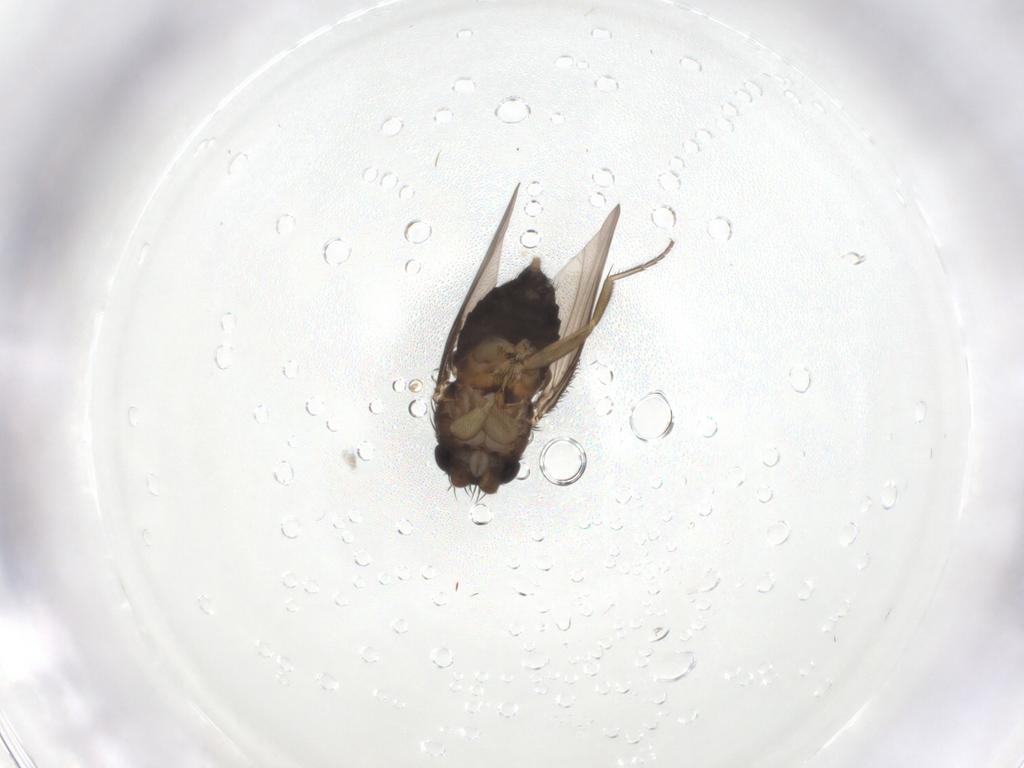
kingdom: Animalia
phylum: Arthropoda
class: Insecta
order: Diptera
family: Phoridae
